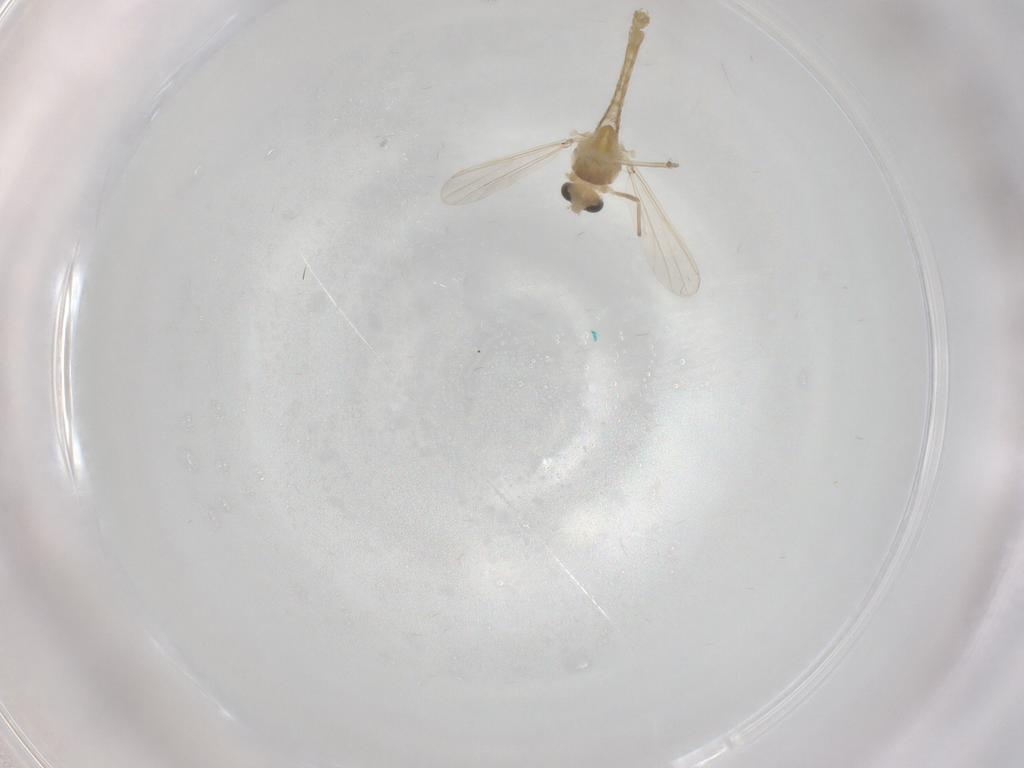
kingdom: Animalia
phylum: Arthropoda
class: Insecta
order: Diptera
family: Chironomidae
